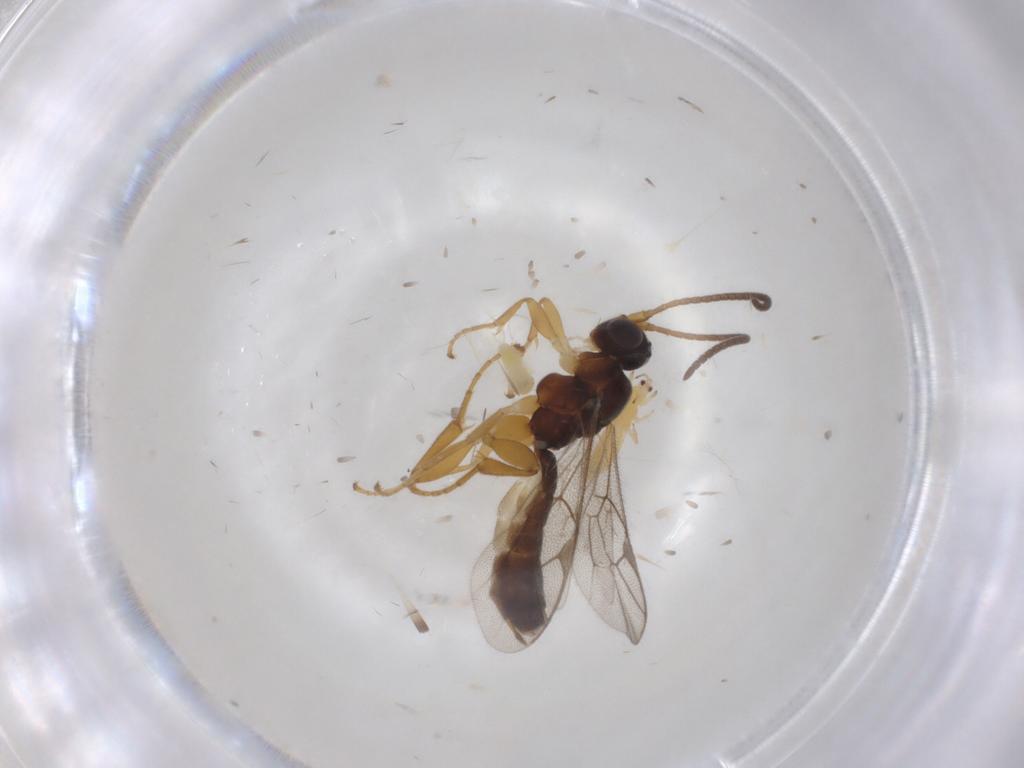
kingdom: Animalia
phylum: Arthropoda
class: Insecta
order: Hymenoptera
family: Ichneumonidae
